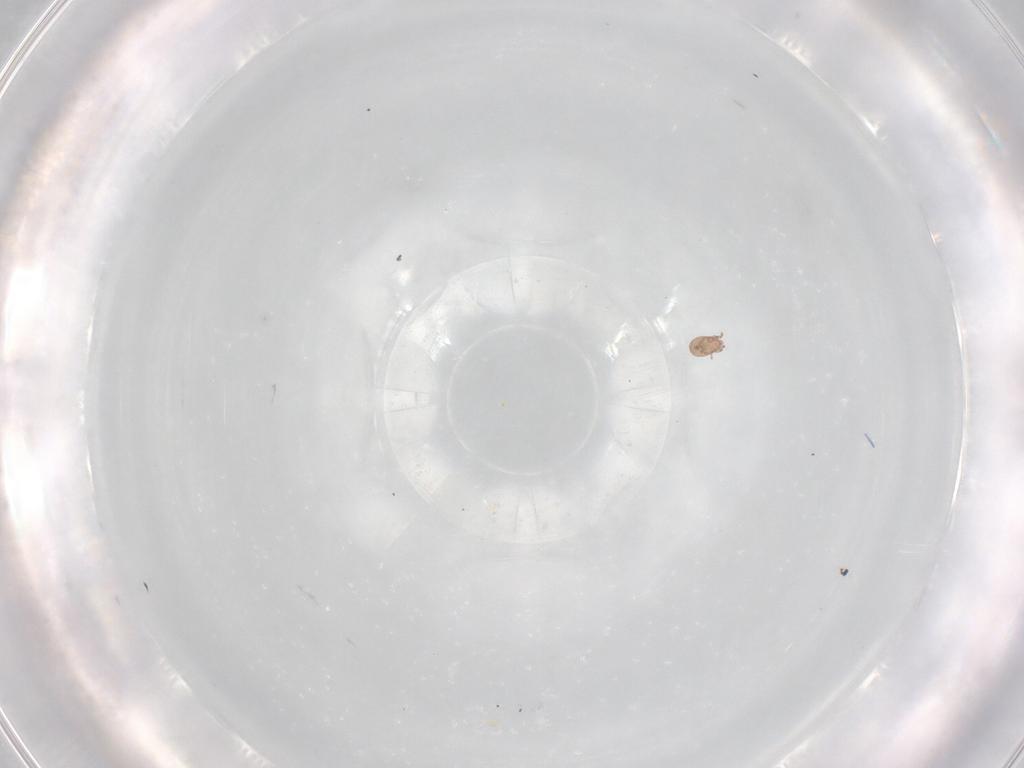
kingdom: Animalia
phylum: Arthropoda
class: Arachnida
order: Sarcoptiformes
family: Eremaeidae
